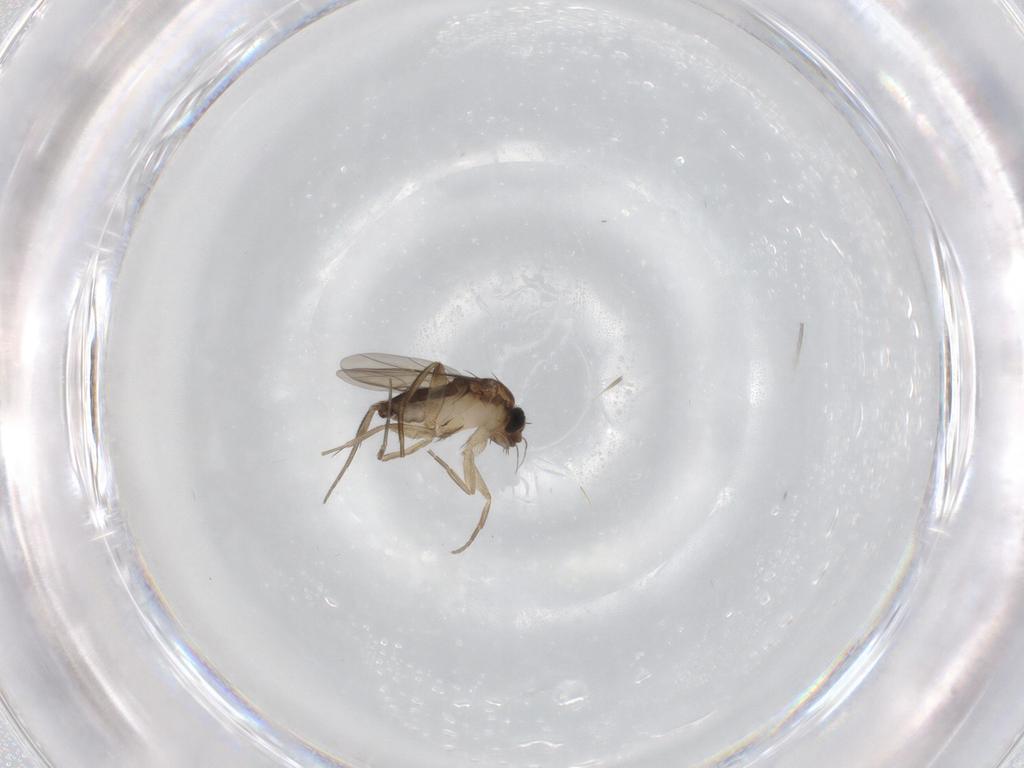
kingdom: Animalia
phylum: Arthropoda
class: Insecta
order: Diptera
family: Phoridae
